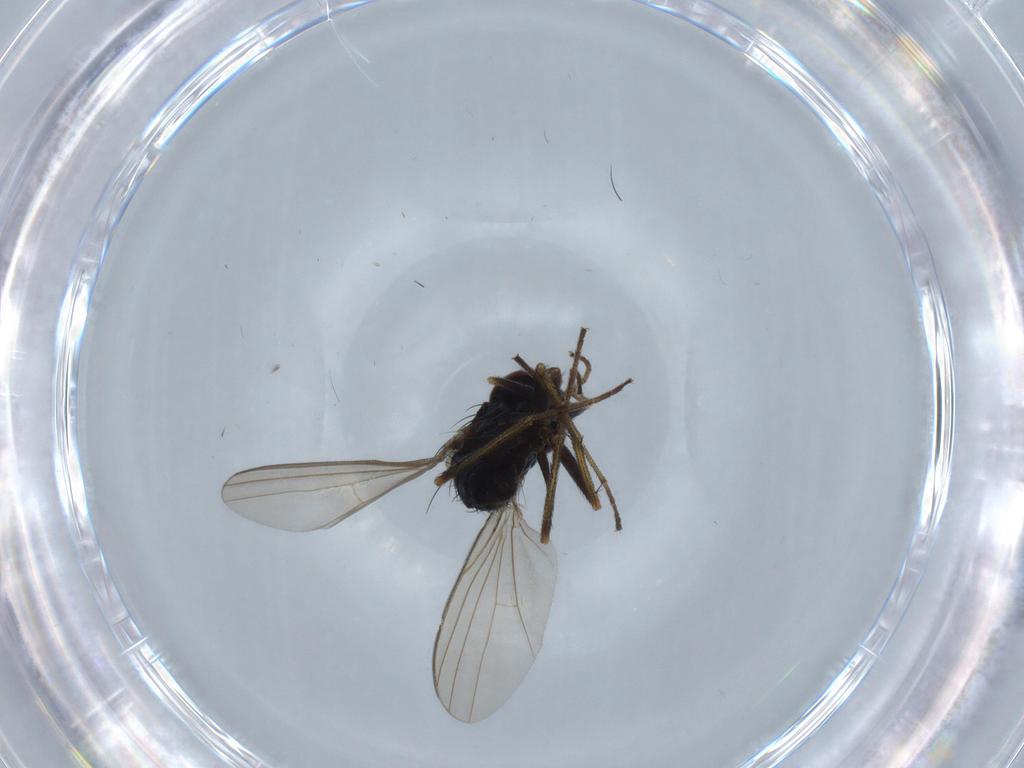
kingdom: Animalia
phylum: Arthropoda
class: Insecta
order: Diptera
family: Dolichopodidae
